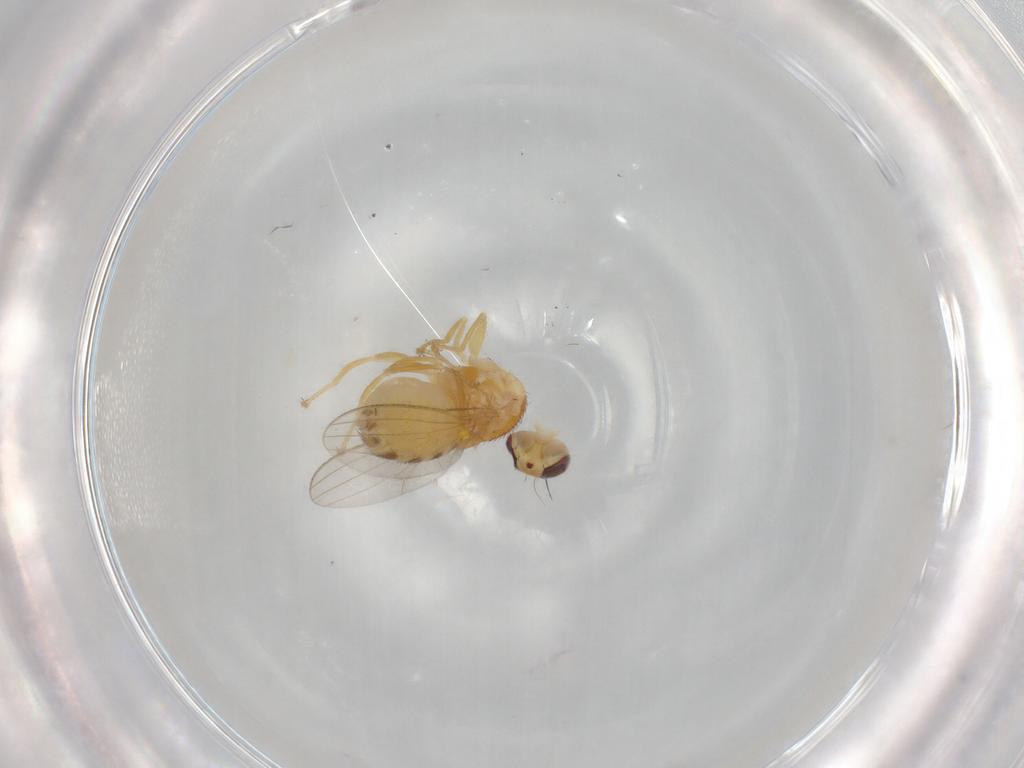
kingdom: Animalia
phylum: Arthropoda
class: Insecta
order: Diptera
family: Chyromyidae
